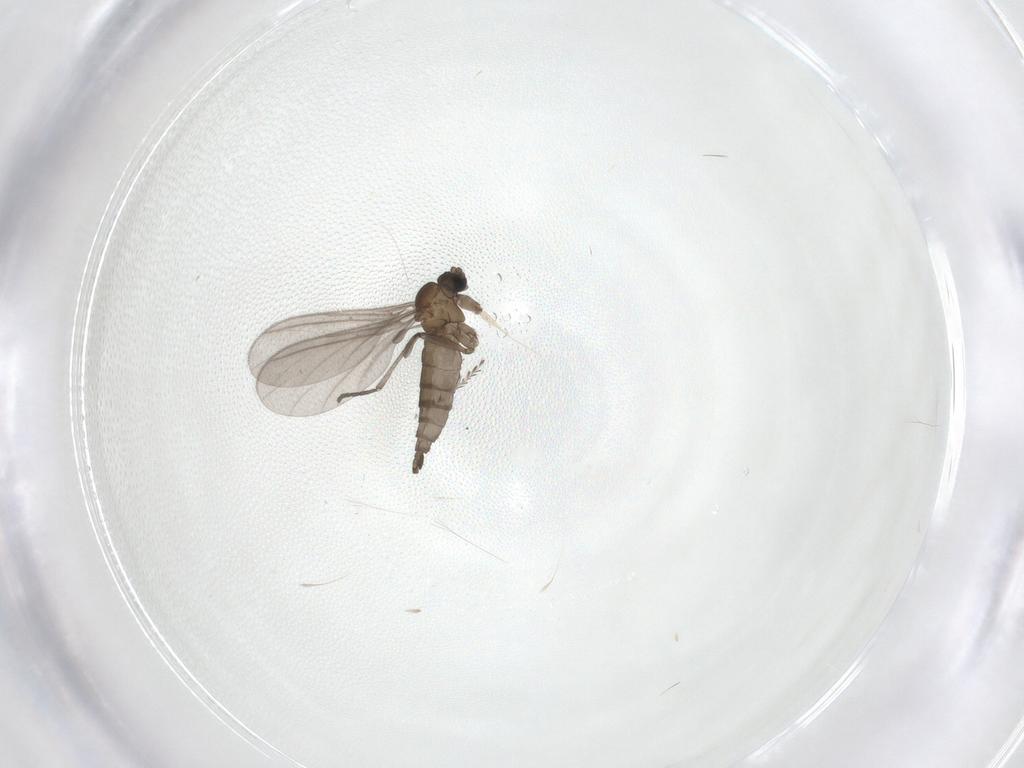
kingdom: Animalia
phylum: Arthropoda
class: Insecta
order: Diptera
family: Sciaridae
